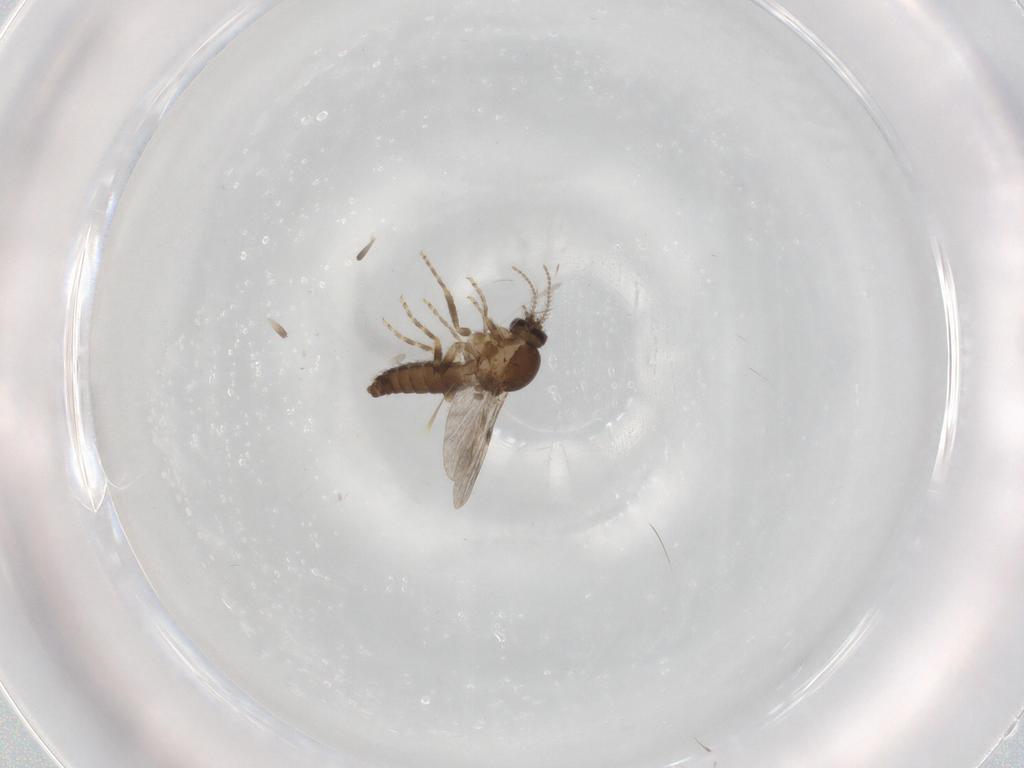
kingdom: Animalia
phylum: Arthropoda
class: Insecta
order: Diptera
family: Ceratopogonidae
